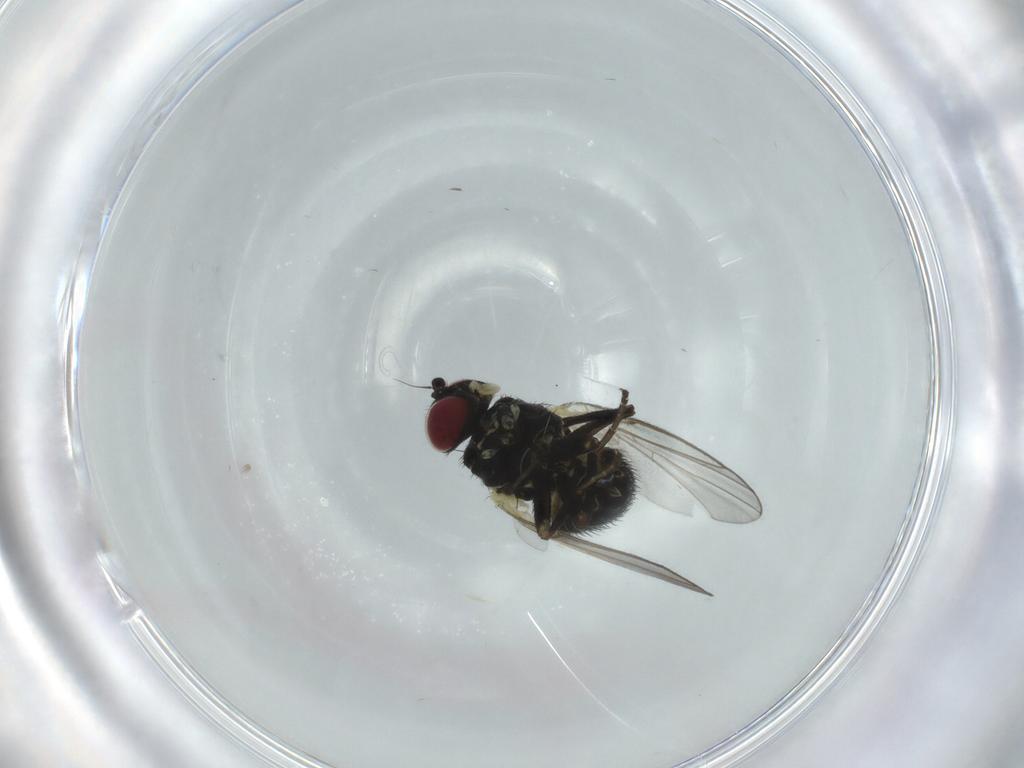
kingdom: Animalia
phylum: Arthropoda
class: Insecta
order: Diptera
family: Agromyzidae
